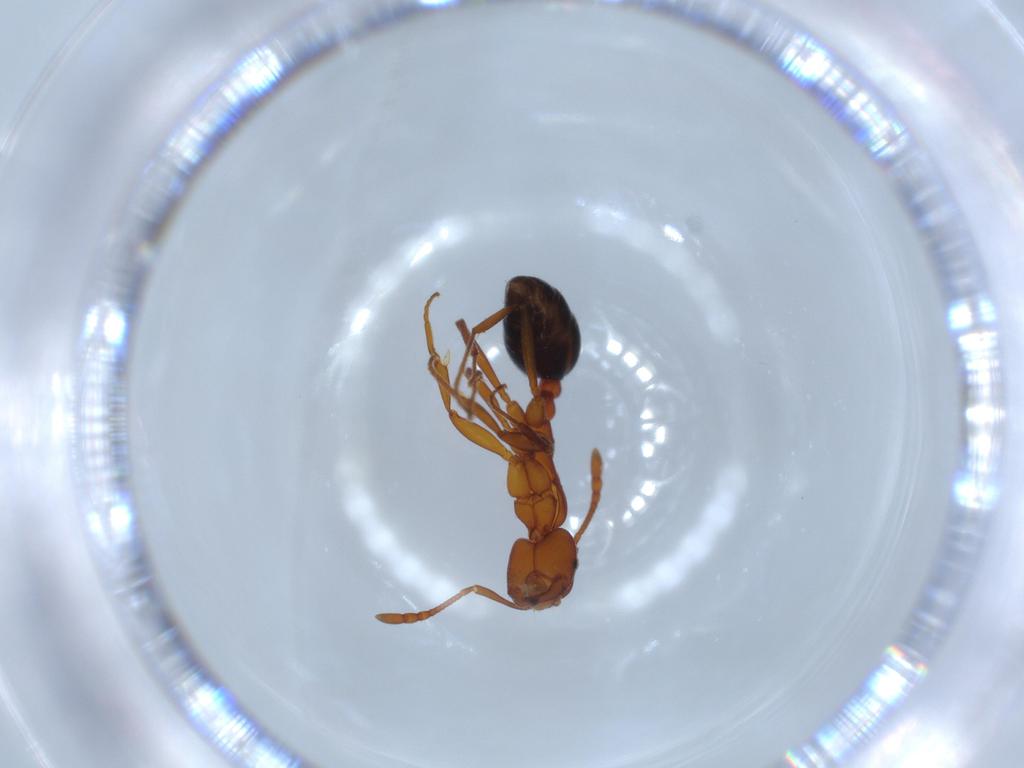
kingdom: Animalia
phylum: Arthropoda
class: Insecta
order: Hymenoptera
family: Formicidae
